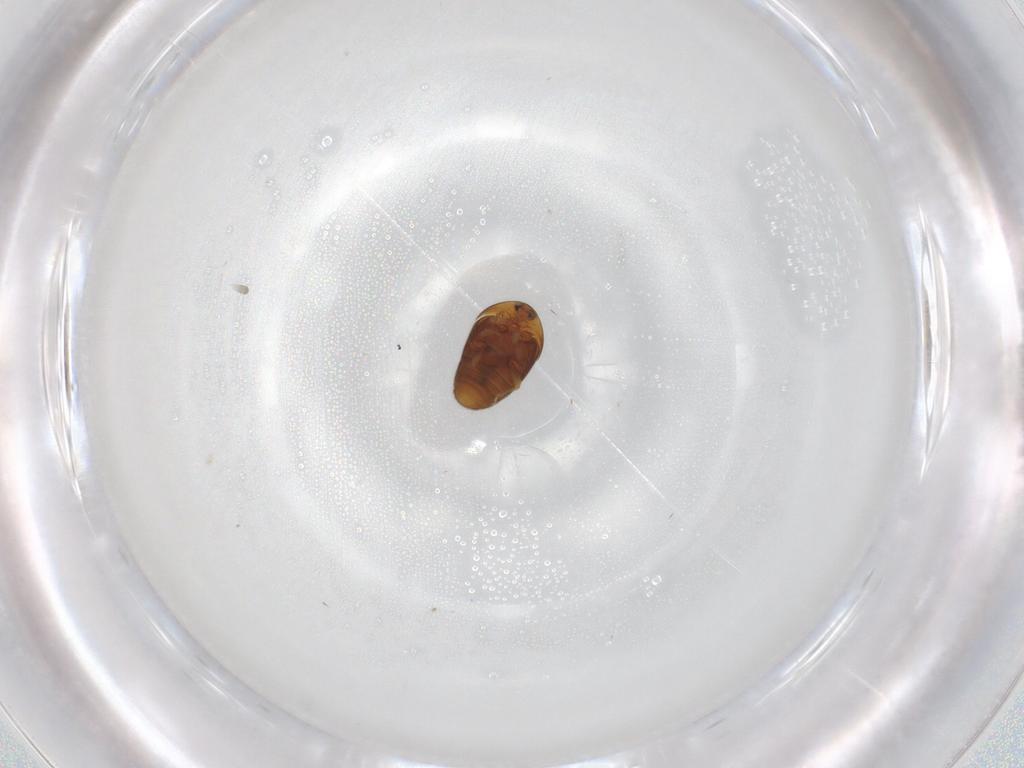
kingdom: Animalia
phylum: Arthropoda
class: Insecta
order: Coleoptera
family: Corylophidae
